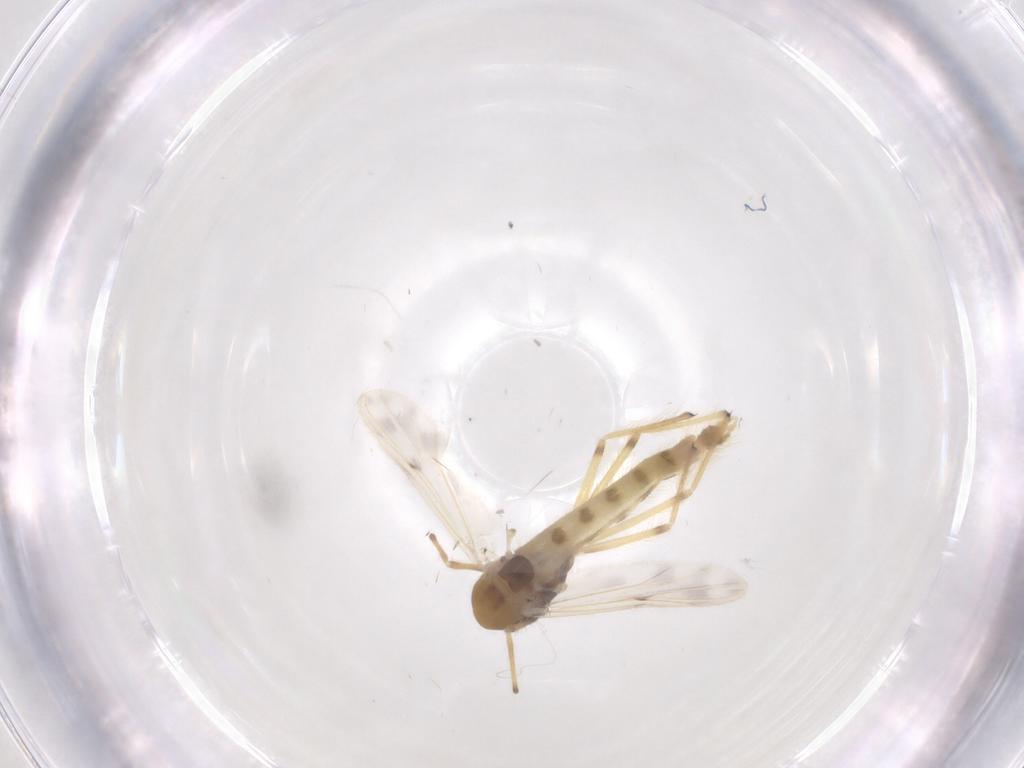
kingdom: Animalia
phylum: Arthropoda
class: Insecta
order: Diptera
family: Chironomidae
